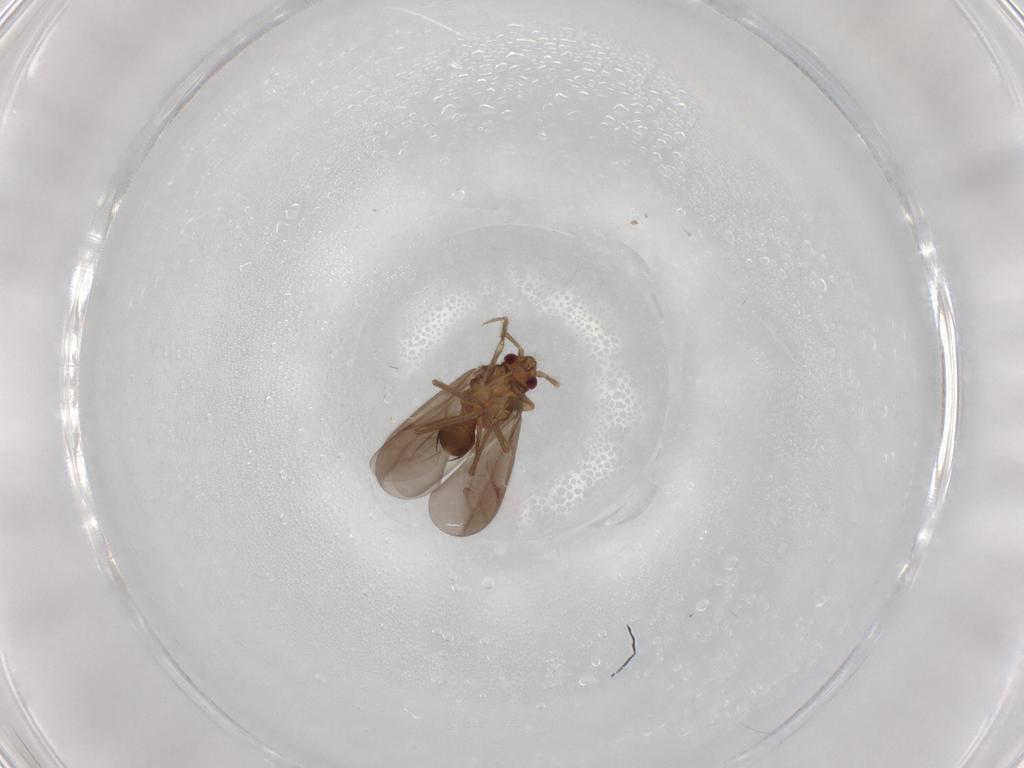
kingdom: Animalia
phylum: Arthropoda
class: Insecta
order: Hemiptera
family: Ceratocombidae
